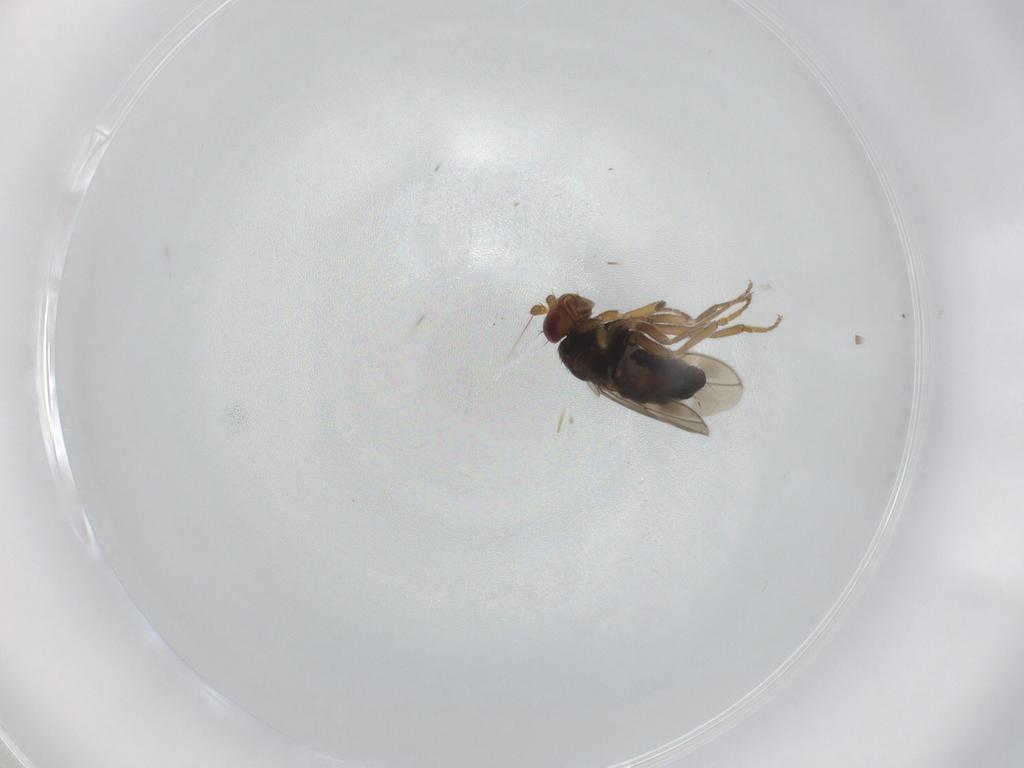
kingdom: Animalia
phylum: Arthropoda
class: Insecta
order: Diptera
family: Sphaeroceridae
